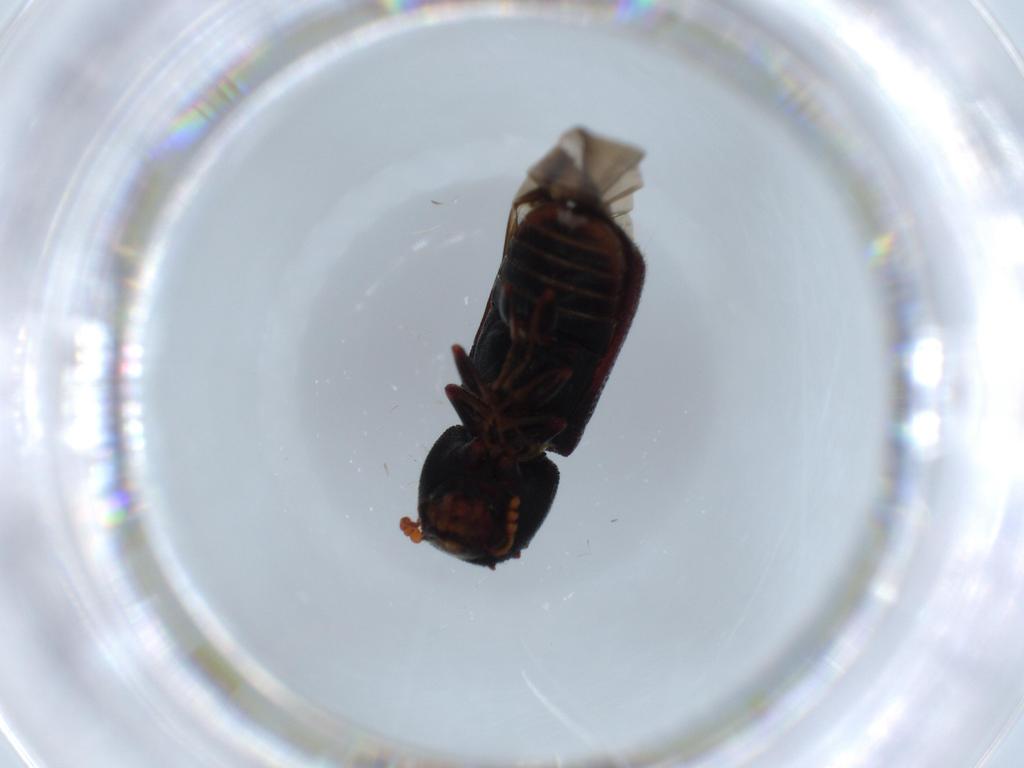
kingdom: Animalia
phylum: Arthropoda
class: Insecta
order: Coleoptera
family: Elateridae
